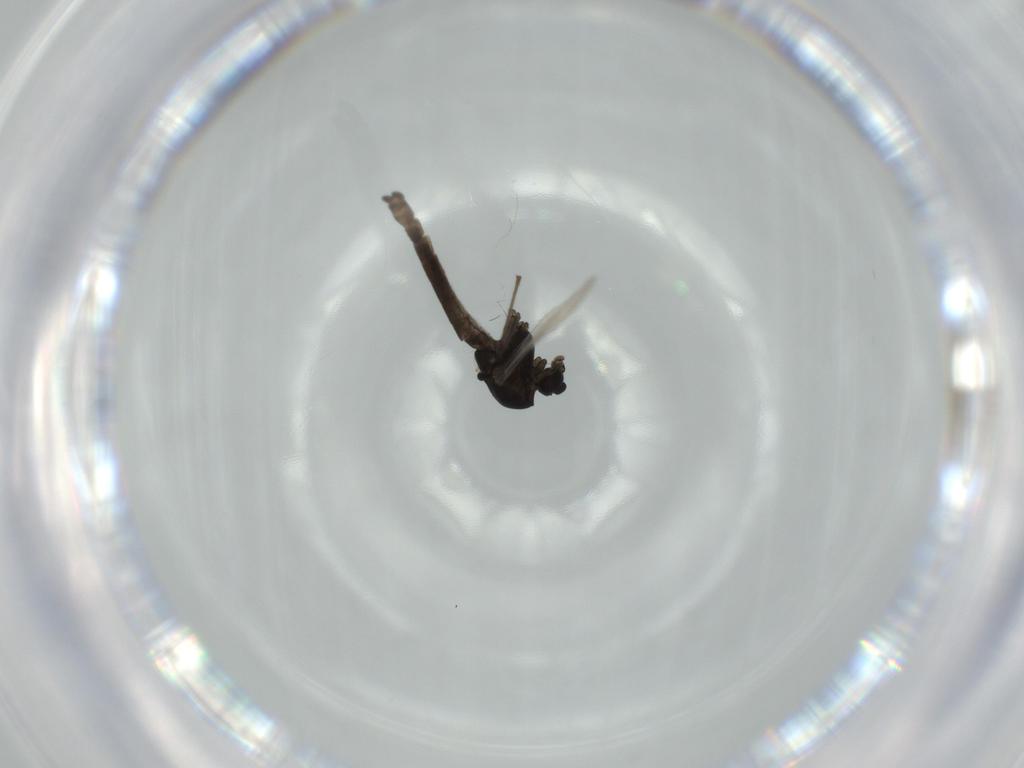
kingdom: Animalia
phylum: Arthropoda
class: Insecta
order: Diptera
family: Chironomidae
